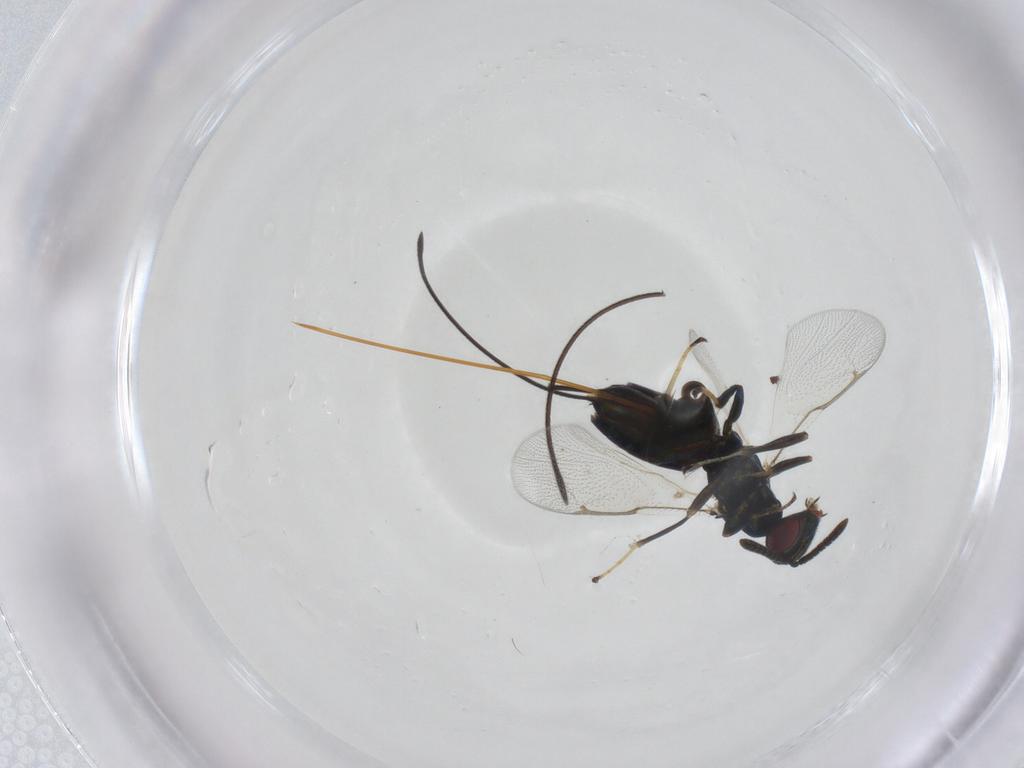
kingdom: Animalia
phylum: Arthropoda
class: Insecta
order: Hymenoptera
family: Torymidae
